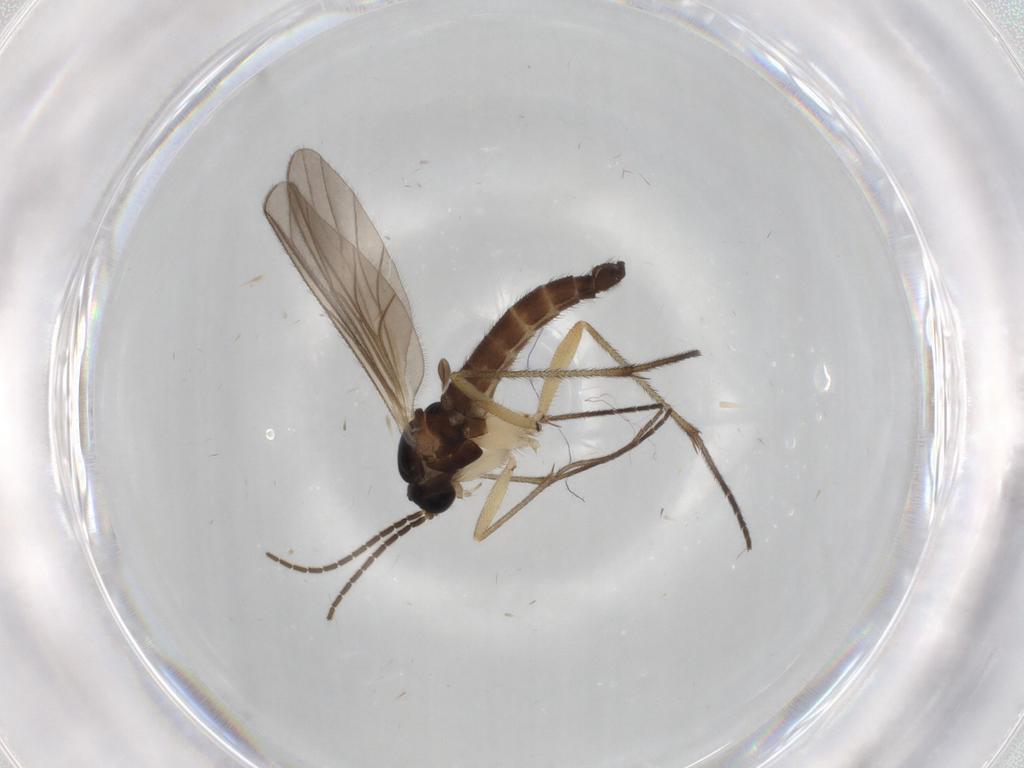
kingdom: Animalia
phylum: Arthropoda
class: Insecta
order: Diptera
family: Sciaridae
